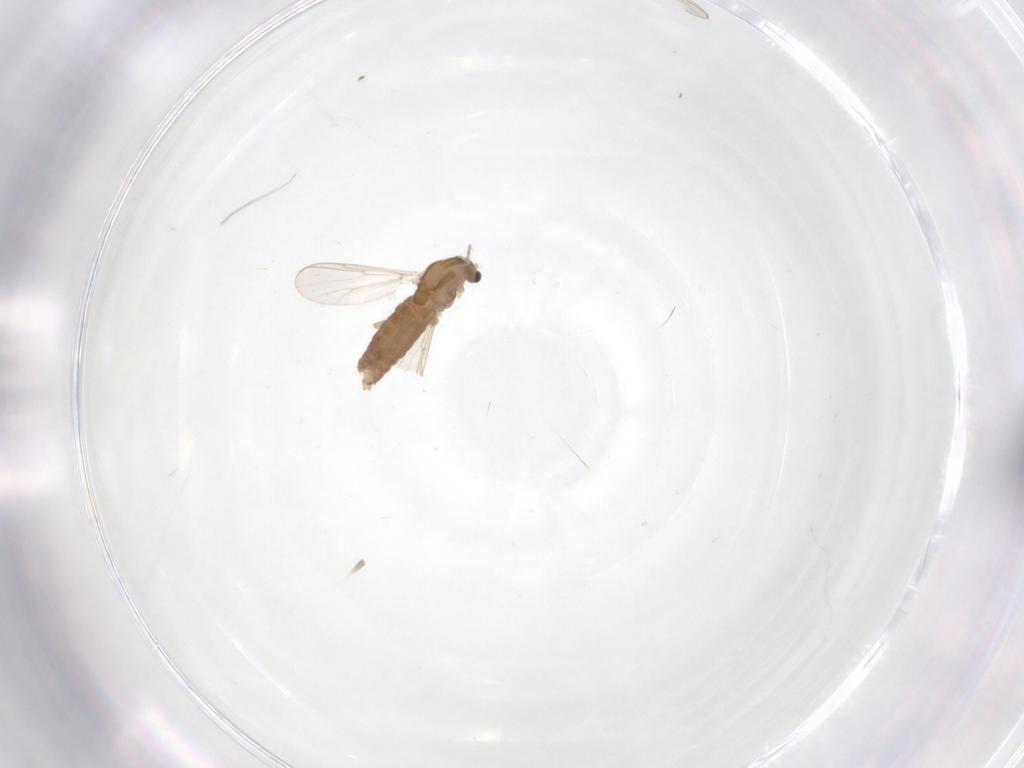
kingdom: Animalia
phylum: Arthropoda
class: Insecta
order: Diptera
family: Chironomidae
